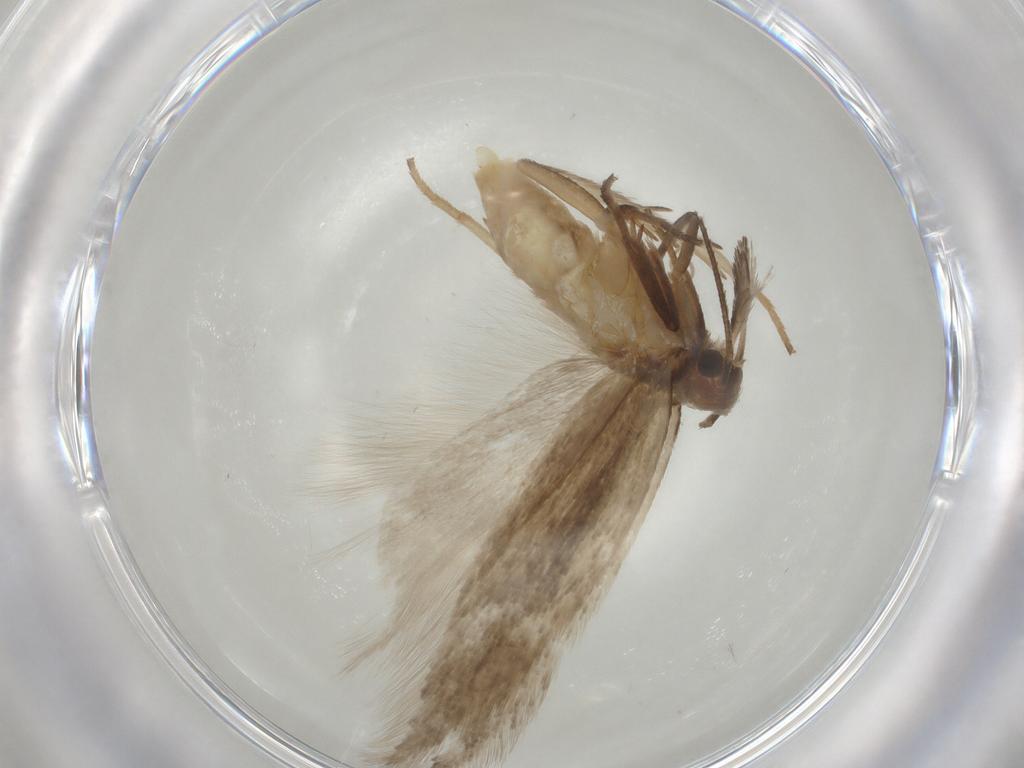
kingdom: Animalia
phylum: Arthropoda
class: Insecta
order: Lepidoptera
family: Gelechiidae
